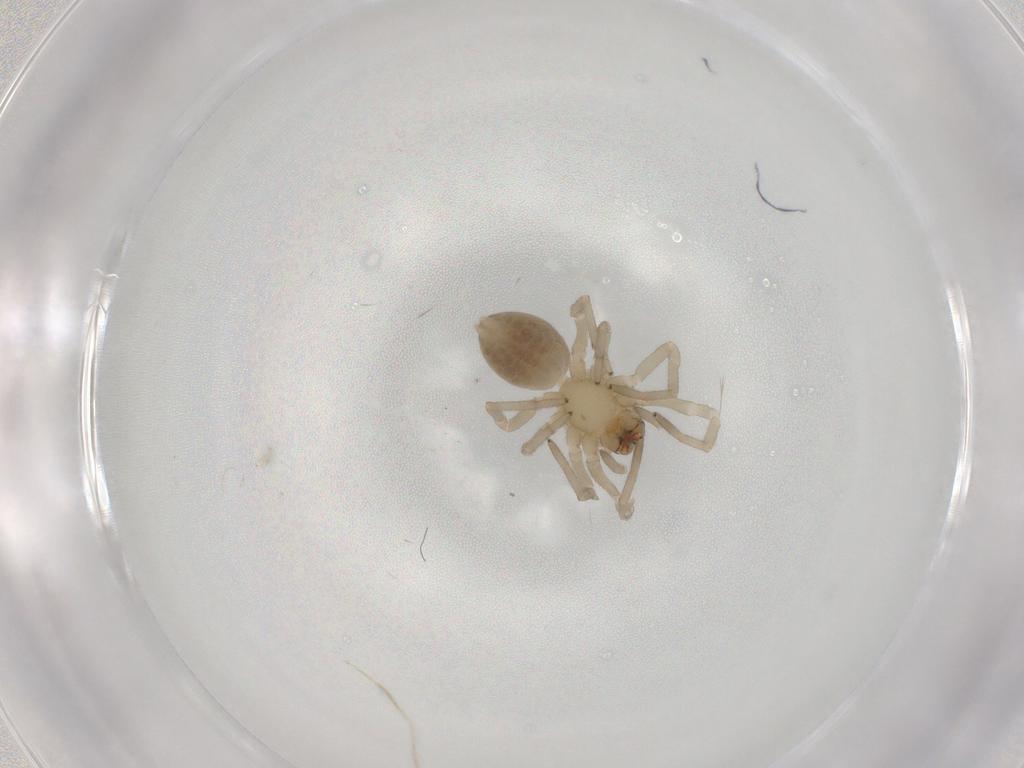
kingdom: Animalia
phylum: Arthropoda
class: Arachnida
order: Araneae
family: Trachelidae
